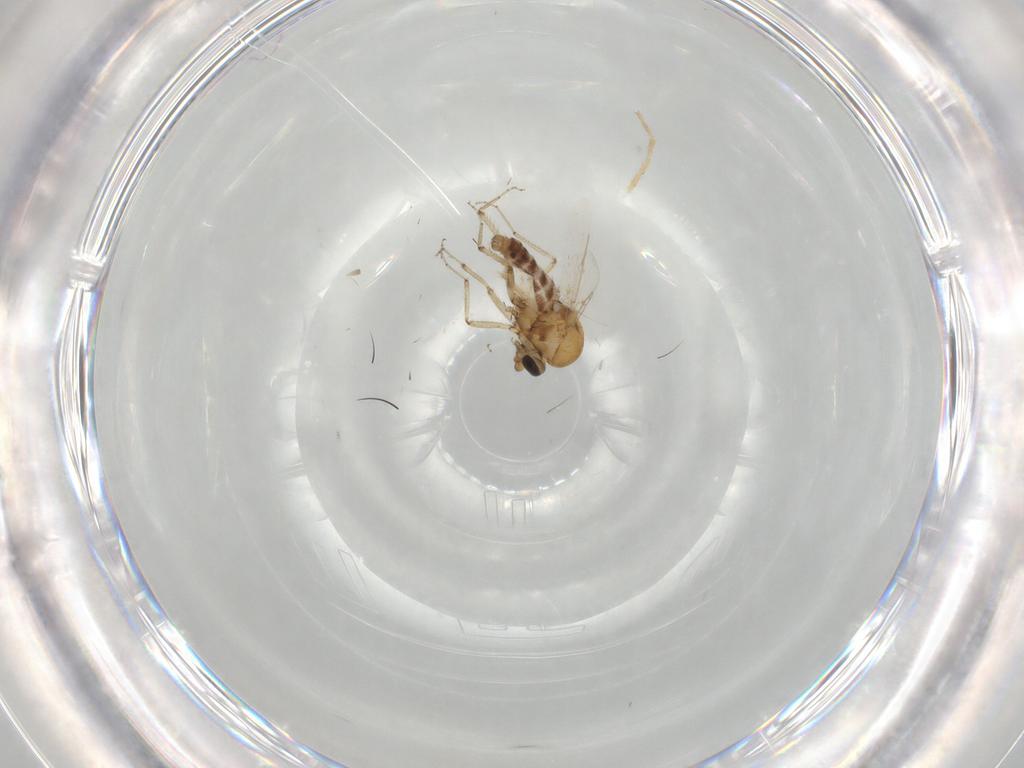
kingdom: Animalia
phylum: Arthropoda
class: Insecta
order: Diptera
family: Ceratopogonidae
